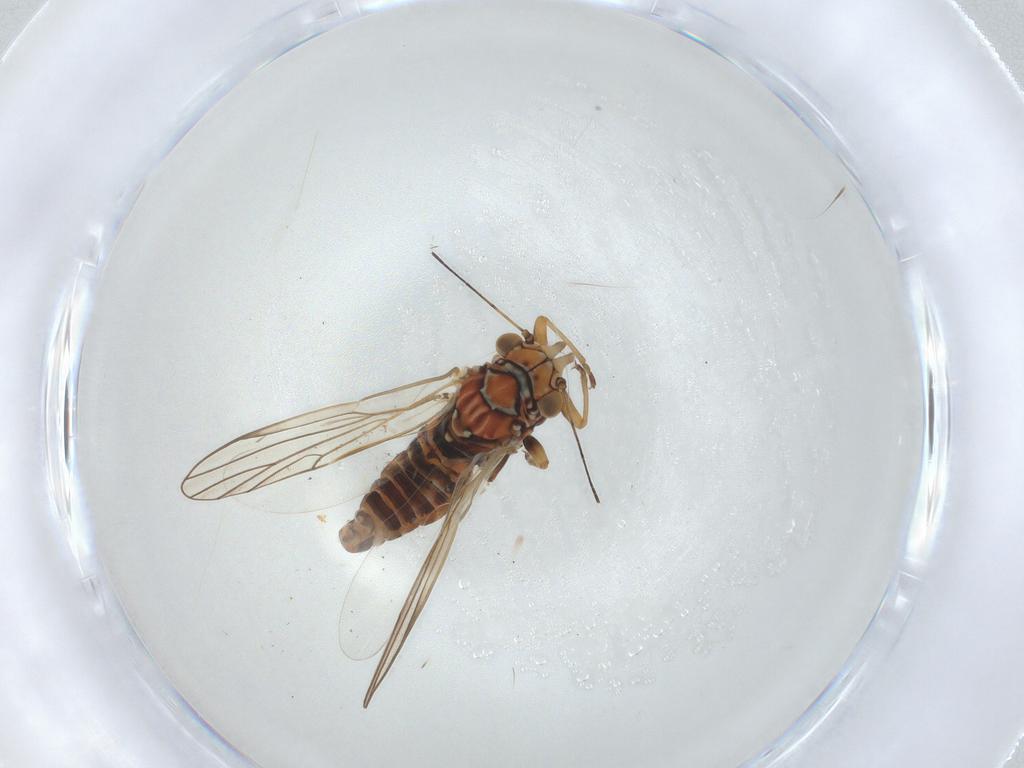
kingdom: Animalia
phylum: Arthropoda
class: Insecta
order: Hemiptera
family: Psyllidae
